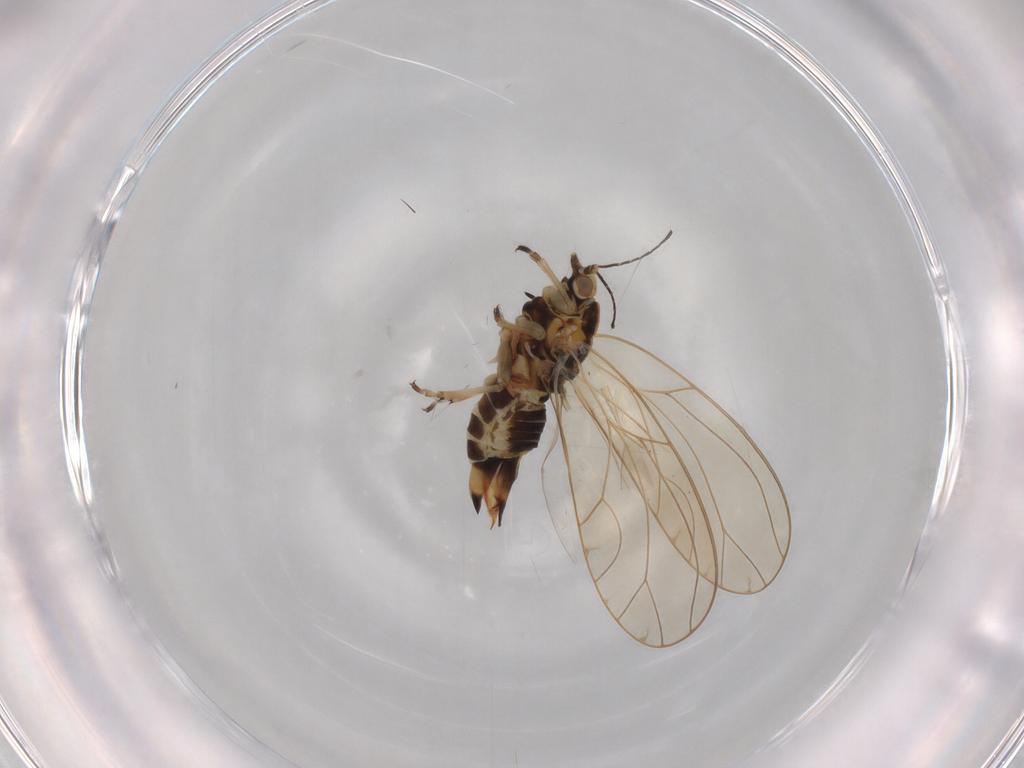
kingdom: Animalia
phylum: Arthropoda
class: Insecta
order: Hemiptera
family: Triozidae
